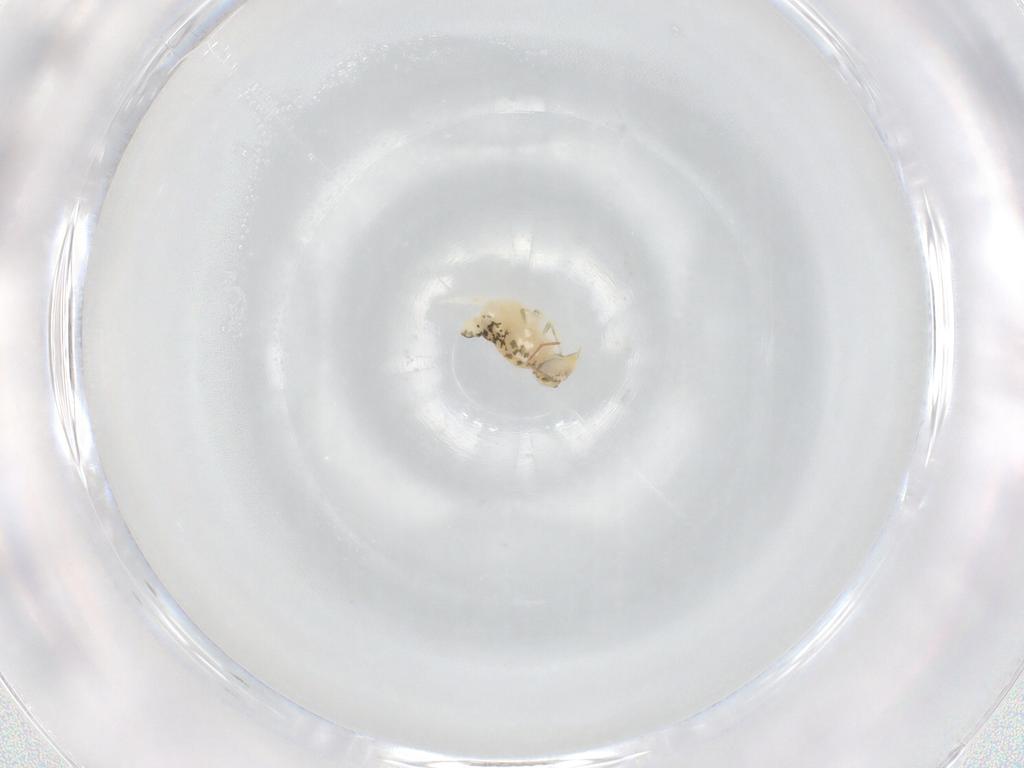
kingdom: Animalia
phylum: Arthropoda
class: Collembola
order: Symphypleona
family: Bourletiellidae
